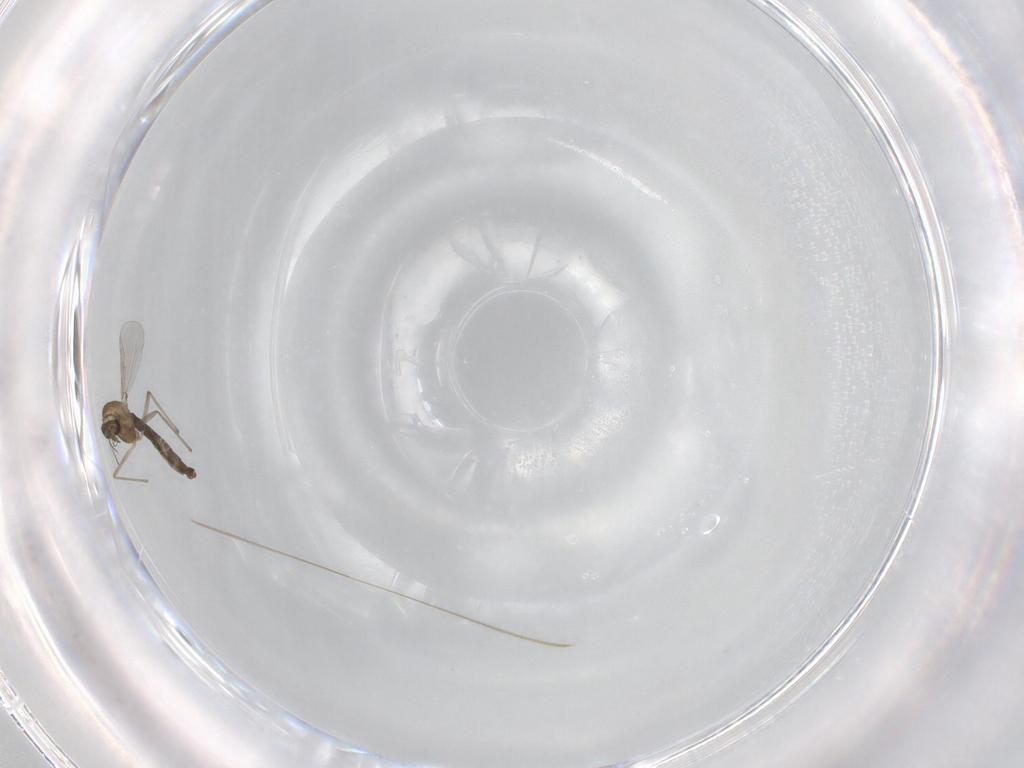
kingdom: Animalia
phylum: Arthropoda
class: Insecta
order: Diptera
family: Chironomidae
